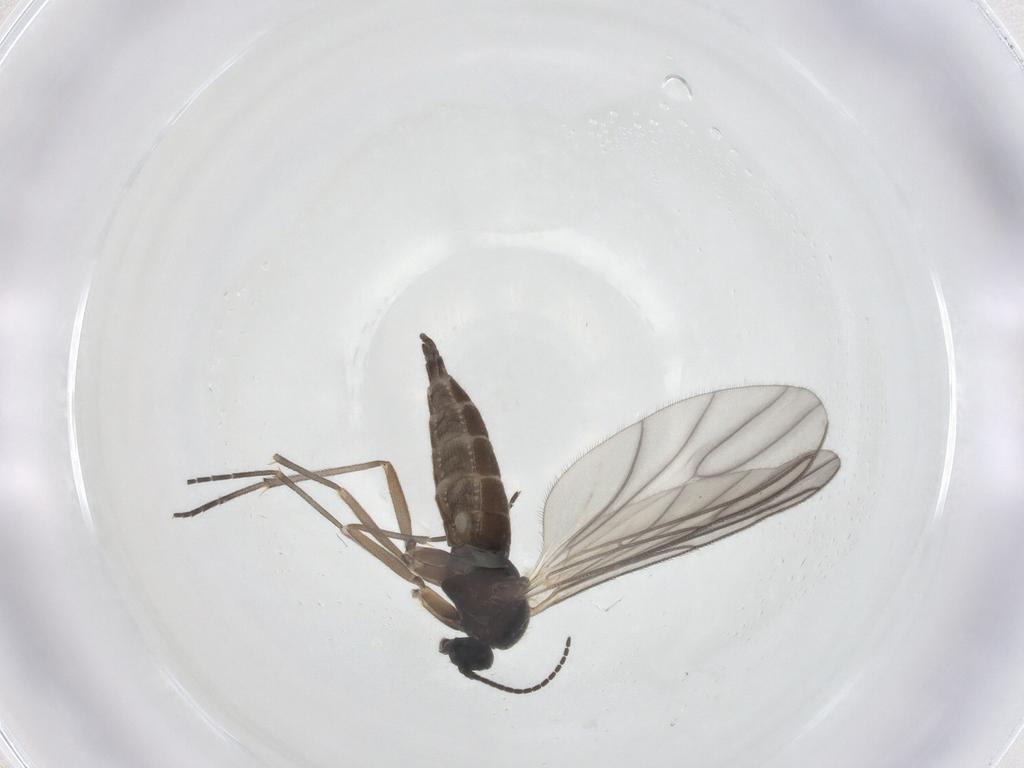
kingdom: Animalia
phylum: Arthropoda
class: Insecta
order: Diptera
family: Sciaridae
